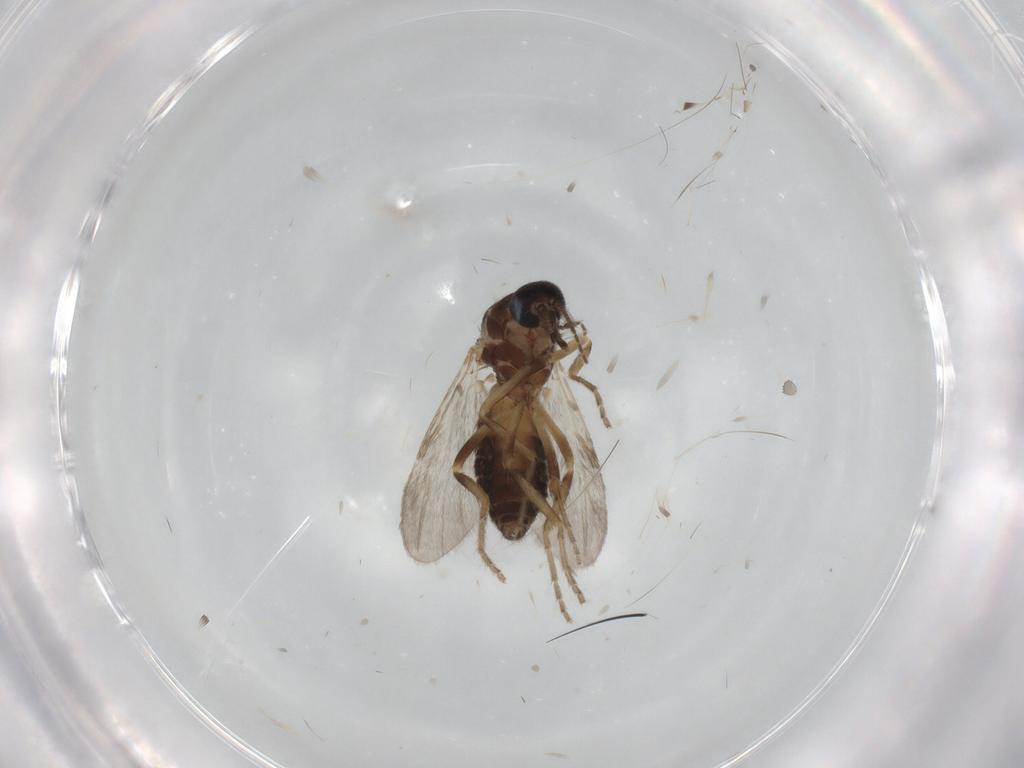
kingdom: Animalia
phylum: Arthropoda
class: Insecta
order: Diptera
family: Ceratopogonidae
